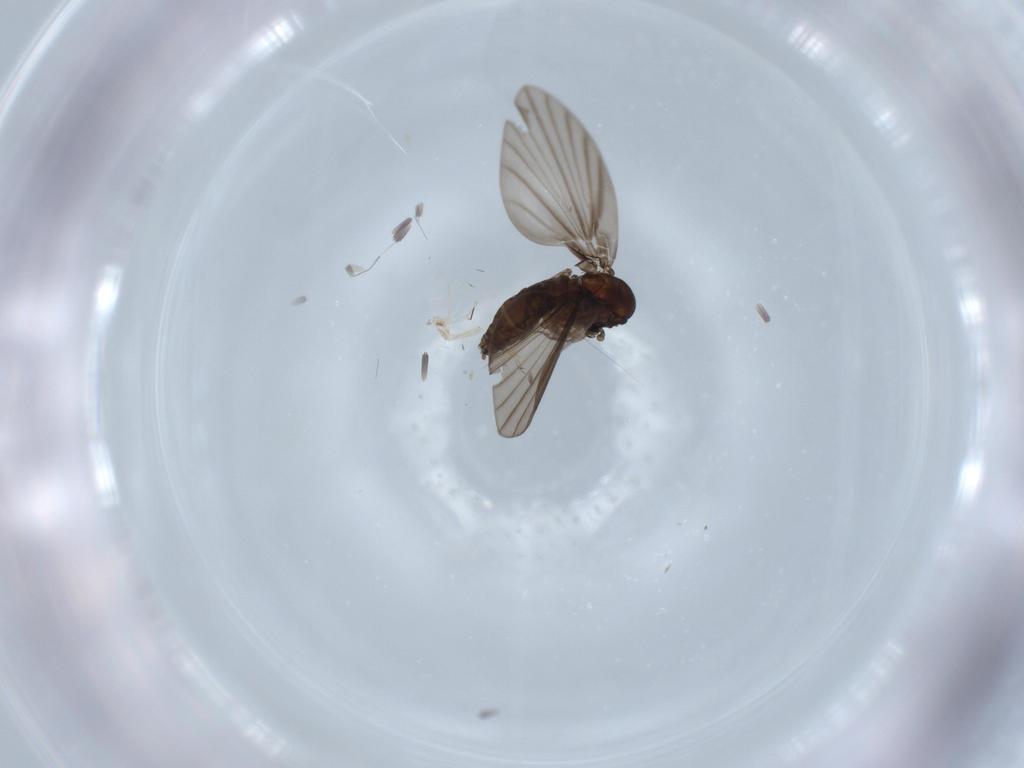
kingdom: Animalia
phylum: Arthropoda
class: Insecta
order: Diptera
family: Psychodidae
